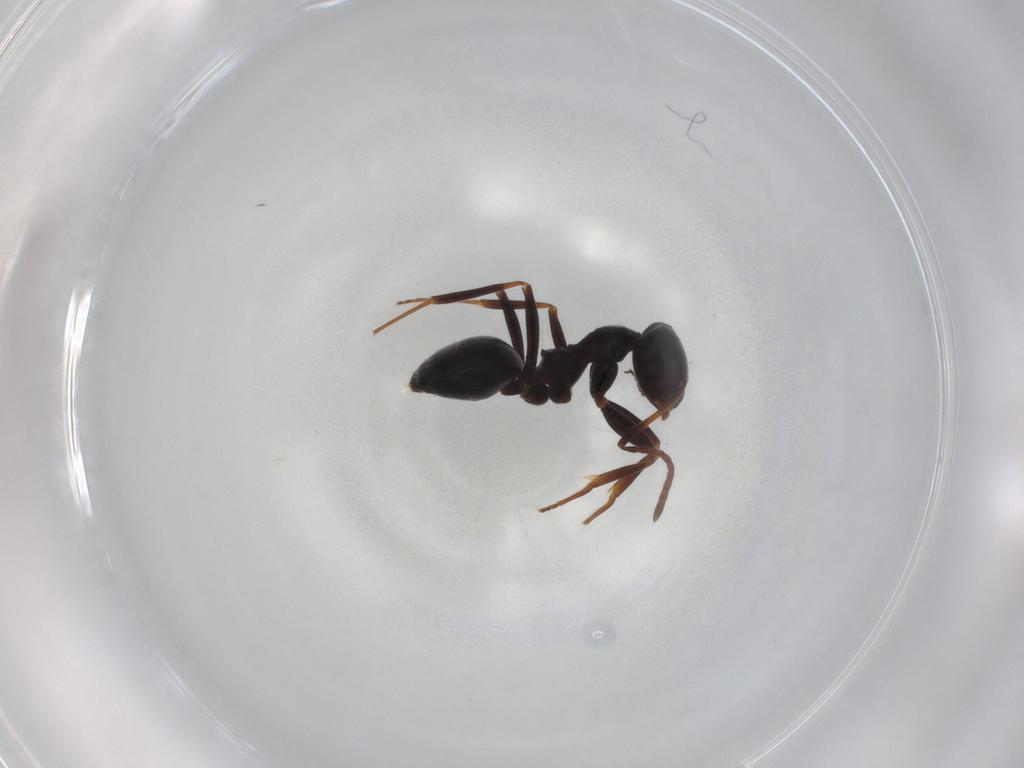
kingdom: Animalia
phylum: Arthropoda
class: Insecta
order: Hymenoptera
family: Formicidae
